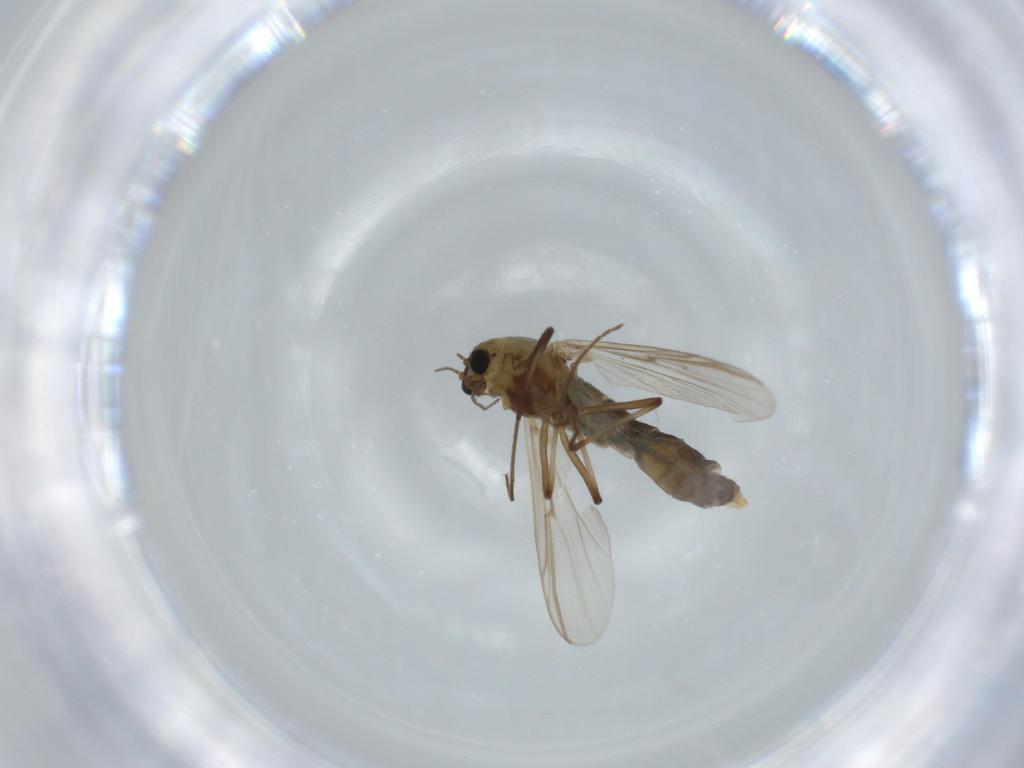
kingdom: Animalia
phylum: Arthropoda
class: Insecta
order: Diptera
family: Chironomidae
